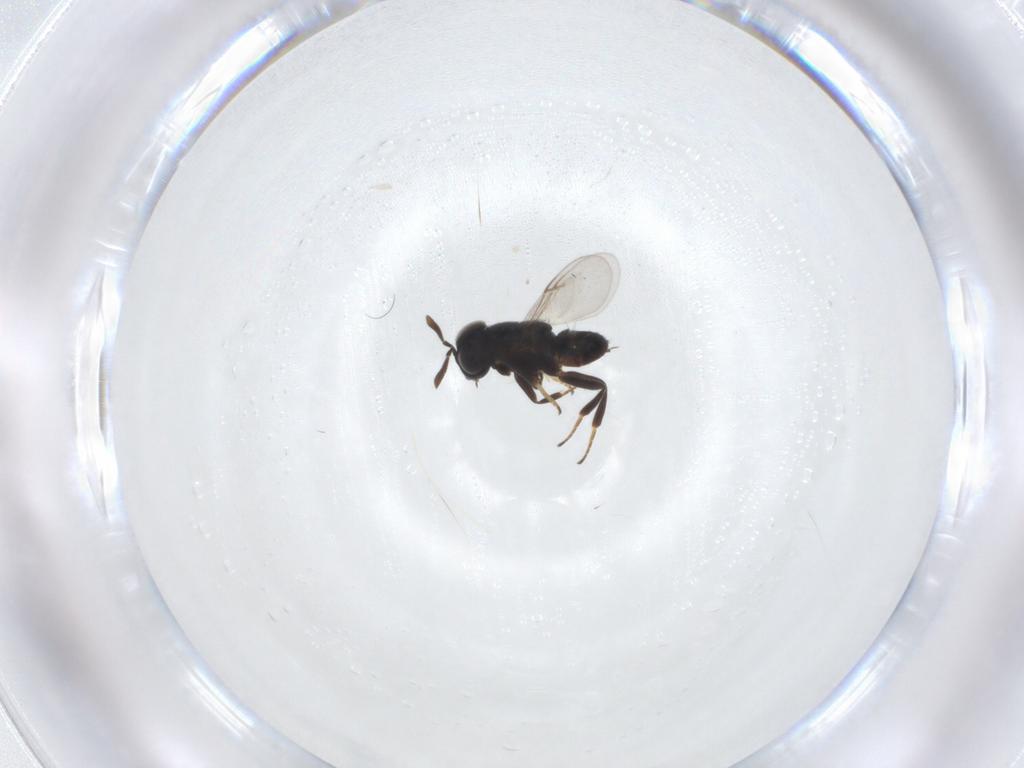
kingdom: Animalia
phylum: Arthropoda
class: Insecta
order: Hymenoptera
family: Encyrtidae
